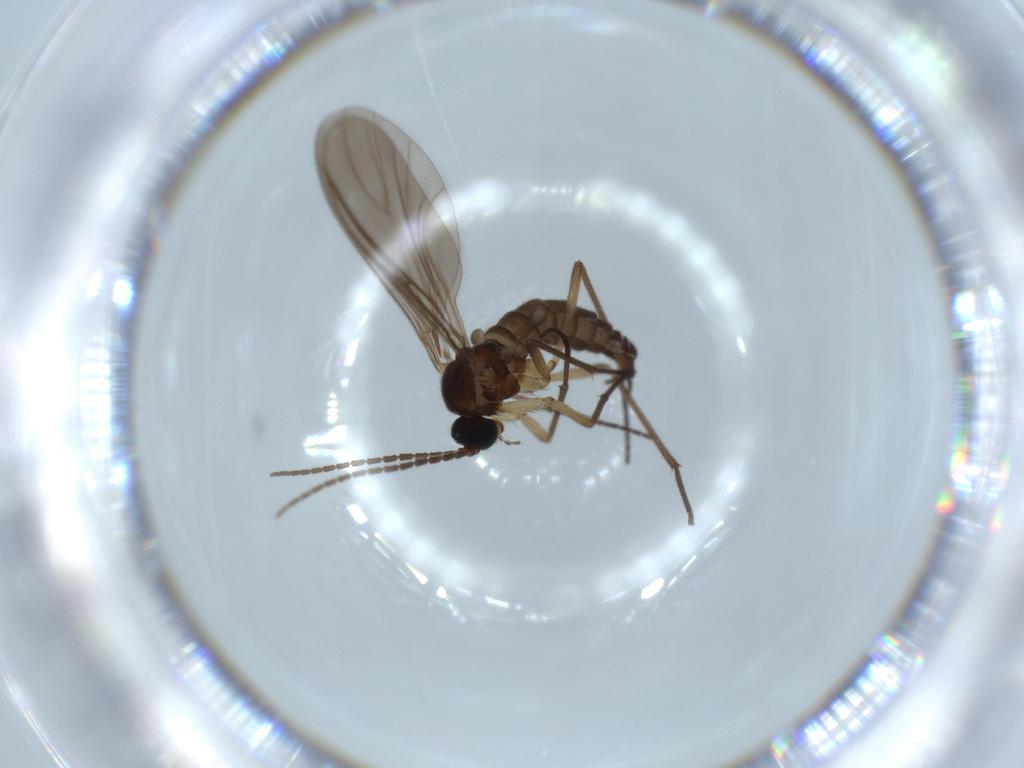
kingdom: Animalia
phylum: Arthropoda
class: Insecta
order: Diptera
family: Sciaridae
